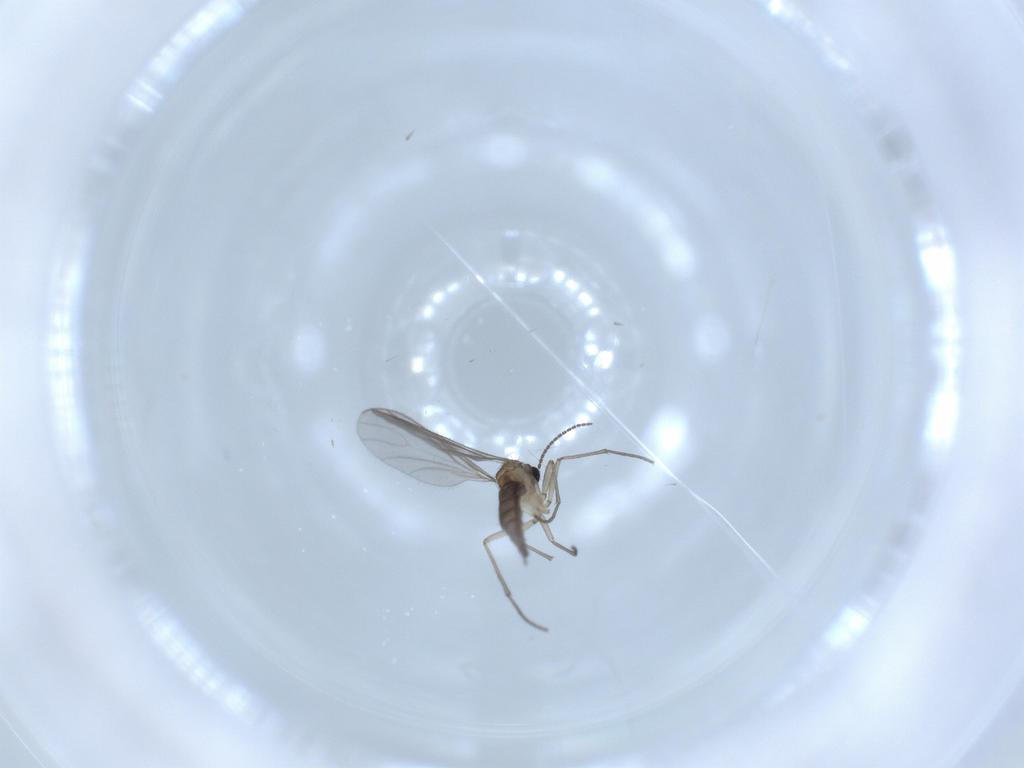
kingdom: Animalia
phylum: Arthropoda
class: Insecta
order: Diptera
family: Sciaridae
